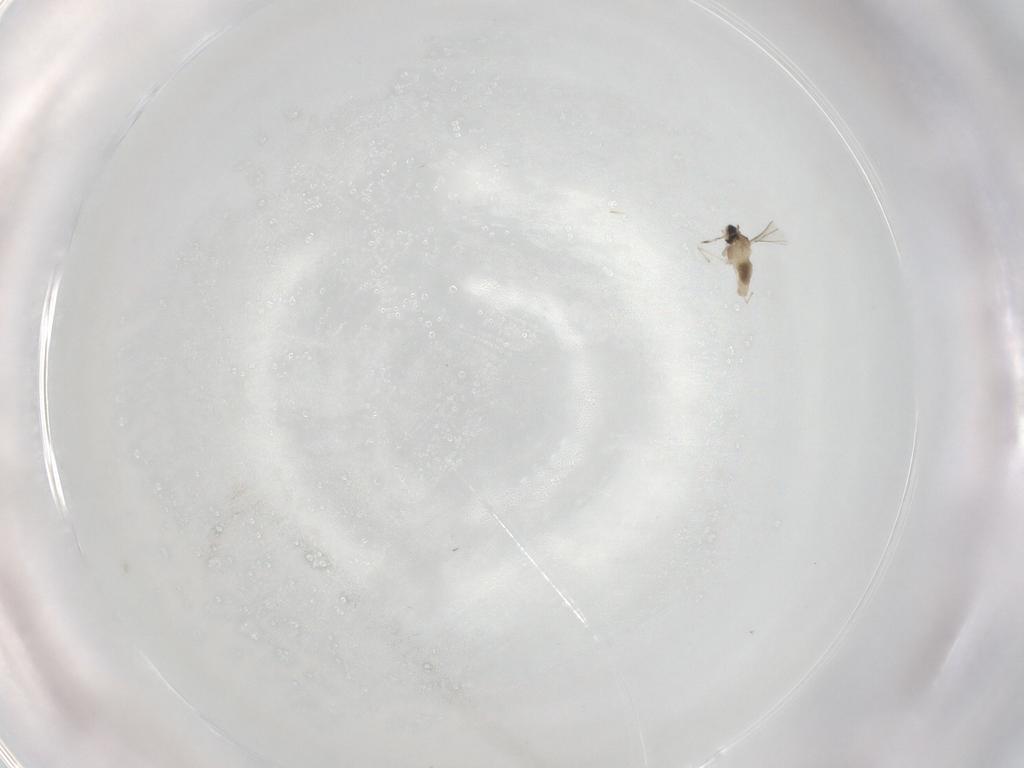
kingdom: Animalia
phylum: Arthropoda
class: Insecta
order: Diptera
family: Cecidomyiidae
